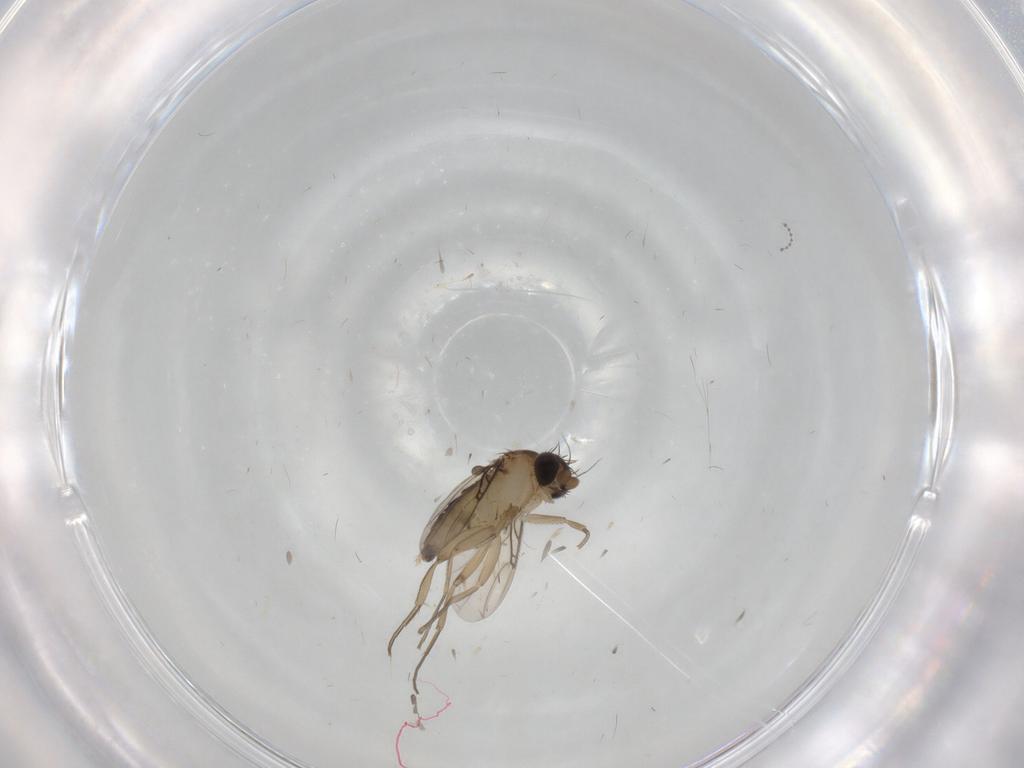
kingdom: Animalia
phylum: Arthropoda
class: Insecta
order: Diptera
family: Phoridae
